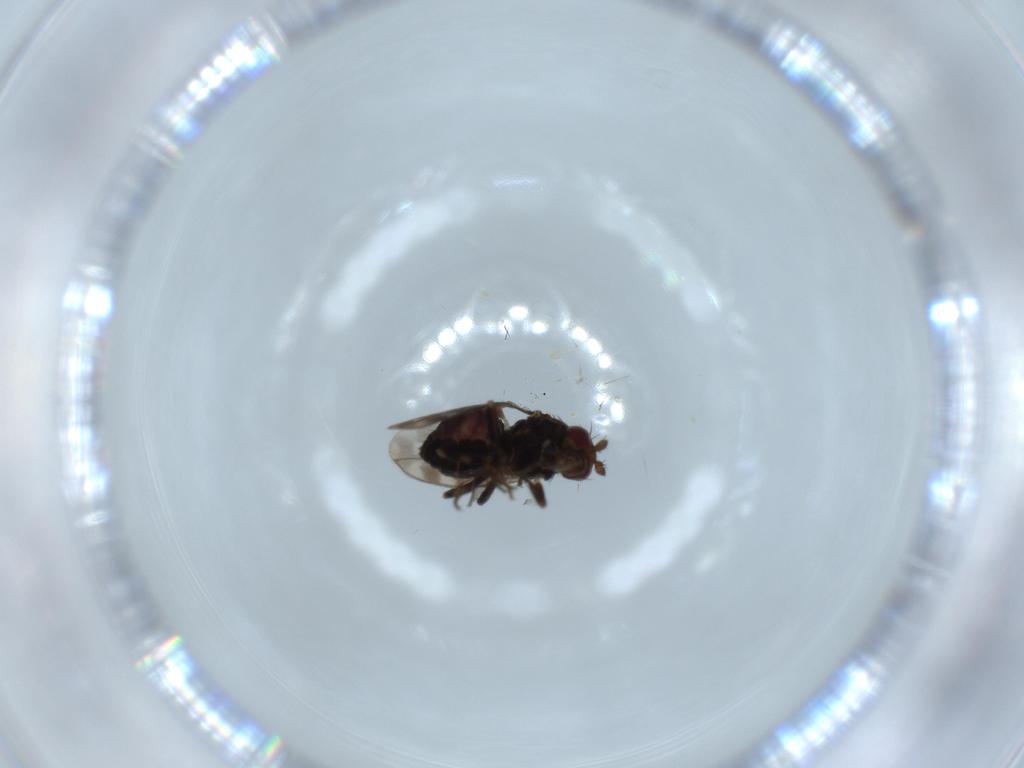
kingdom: Animalia
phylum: Arthropoda
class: Insecta
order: Diptera
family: Sphaeroceridae
